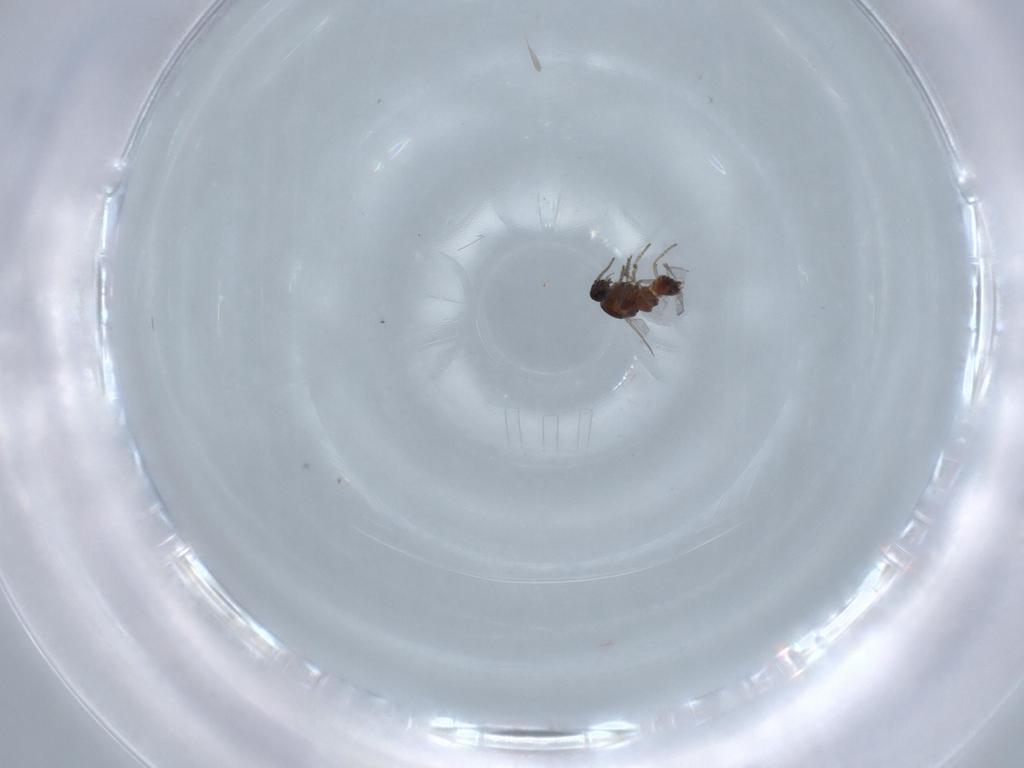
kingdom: Animalia
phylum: Arthropoda
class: Insecta
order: Diptera
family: Ceratopogonidae
